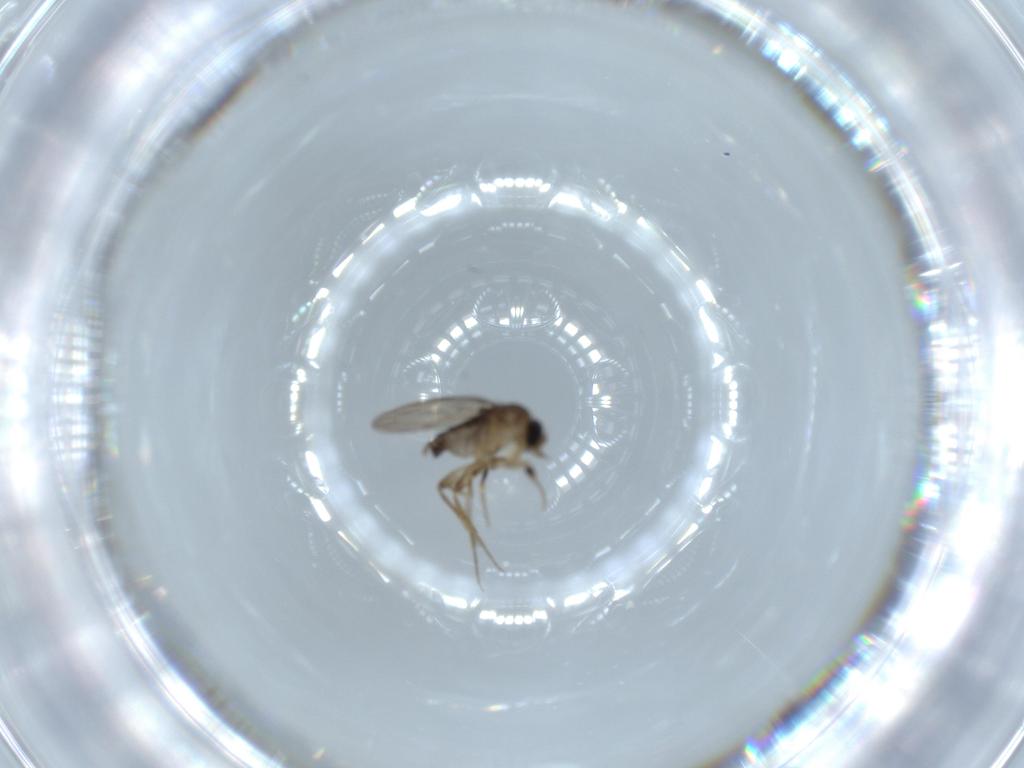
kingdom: Animalia
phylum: Arthropoda
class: Insecta
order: Diptera
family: Phoridae
